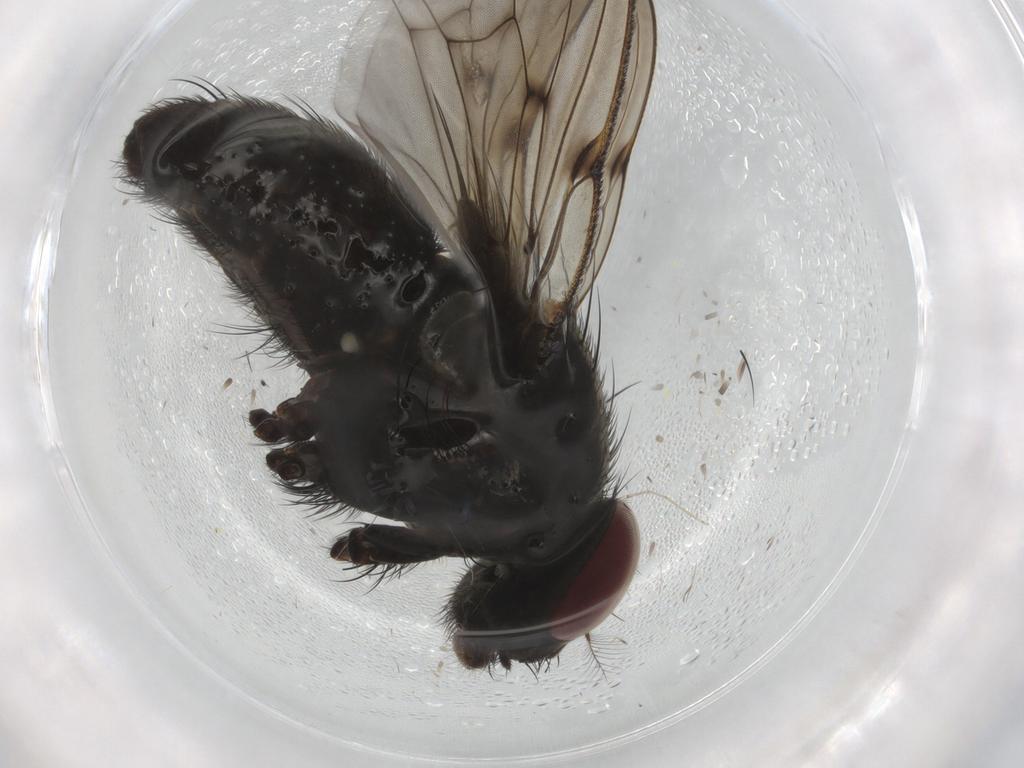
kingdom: Animalia
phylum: Arthropoda
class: Insecta
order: Diptera
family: Muscidae
